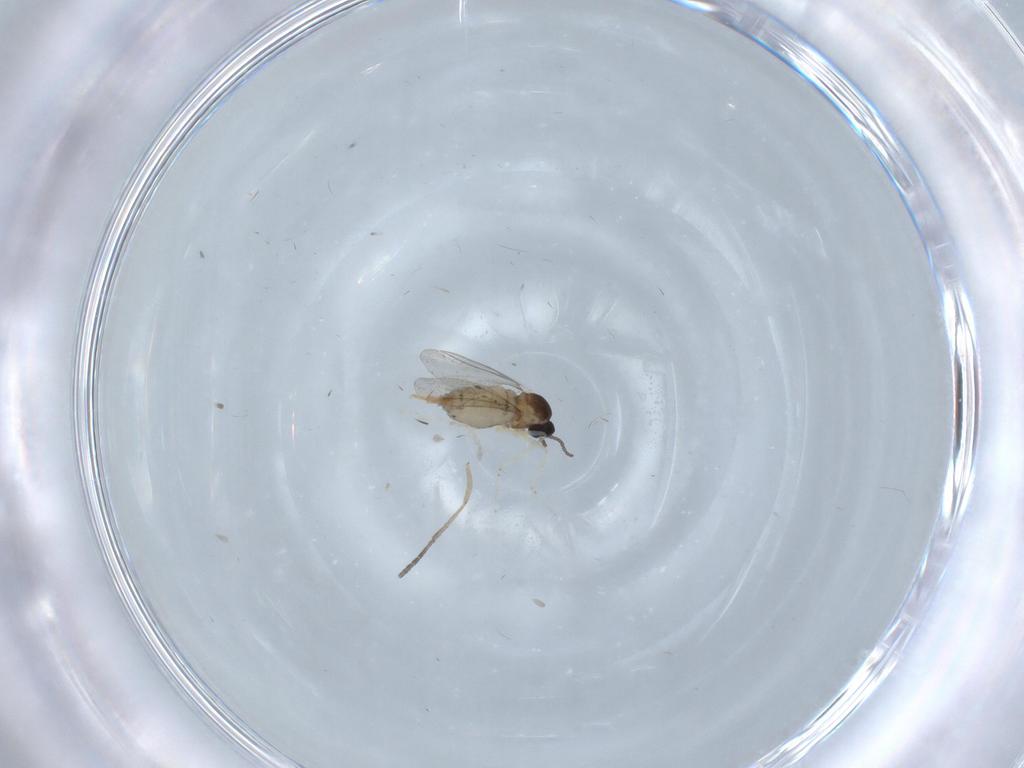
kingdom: Animalia
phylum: Arthropoda
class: Insecta
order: Diptera
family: Cecidomyiidae
